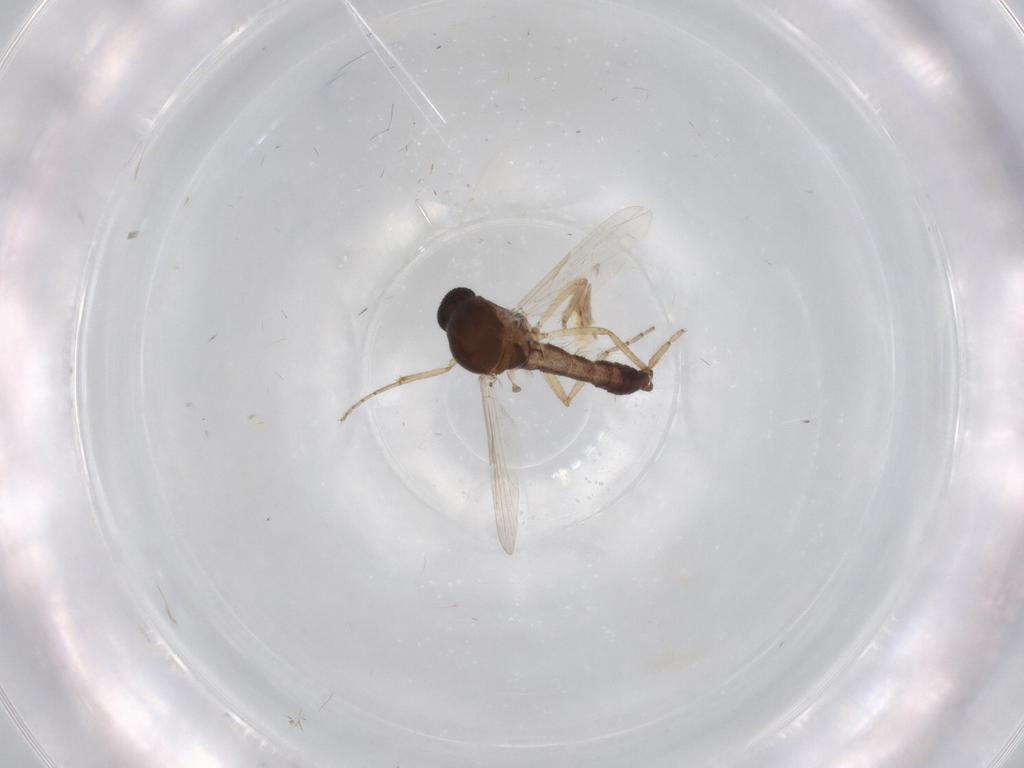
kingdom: Animalia
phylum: Arthropoda
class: Insecta
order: Diptera
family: Ceratopogonidae
